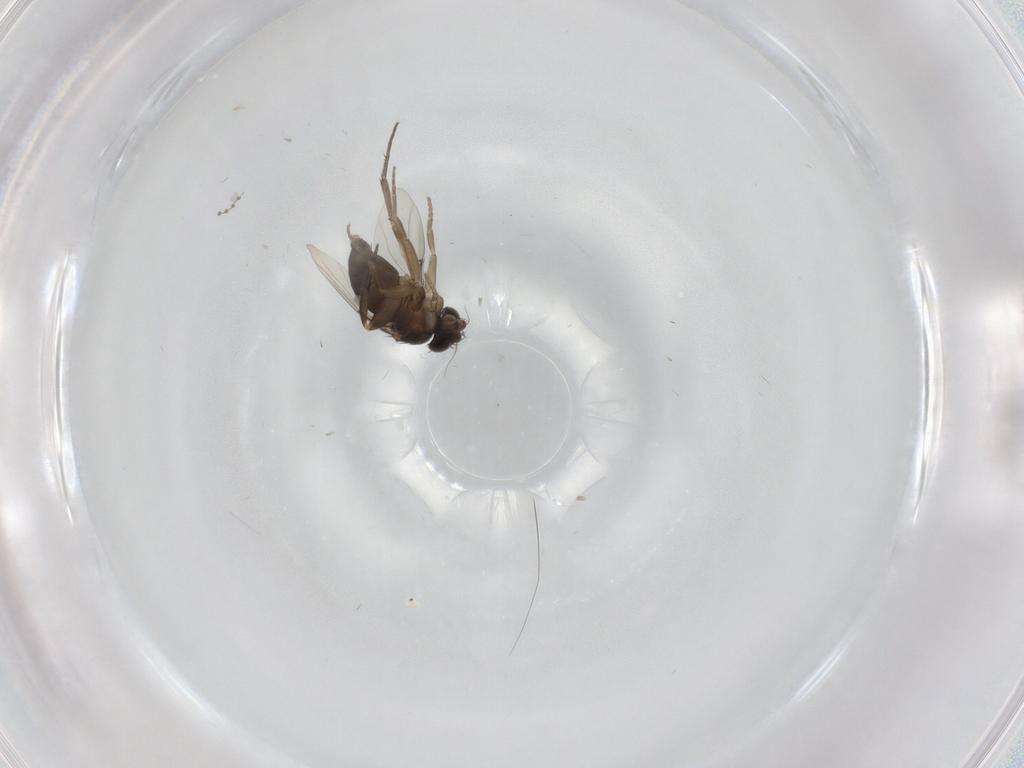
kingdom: Animalia
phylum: Arthropoda
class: Insecta
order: Diptera
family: Phoridae
